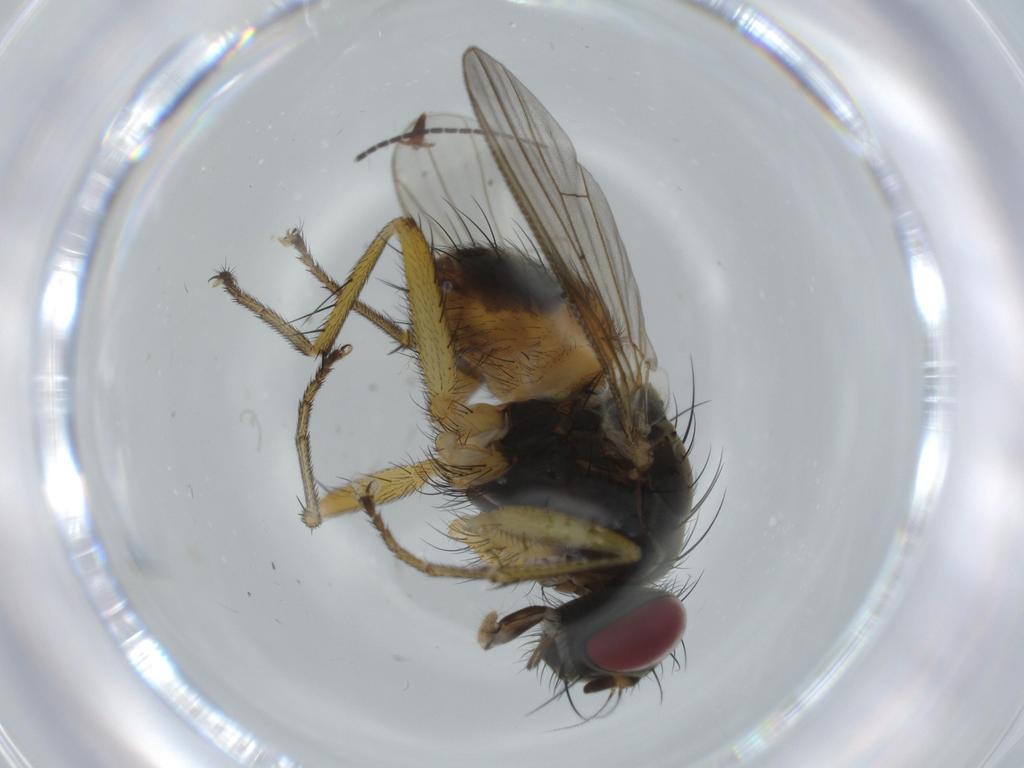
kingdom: Animalia
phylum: Arthropoda
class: Insecta
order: Diptera
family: Muscidae
